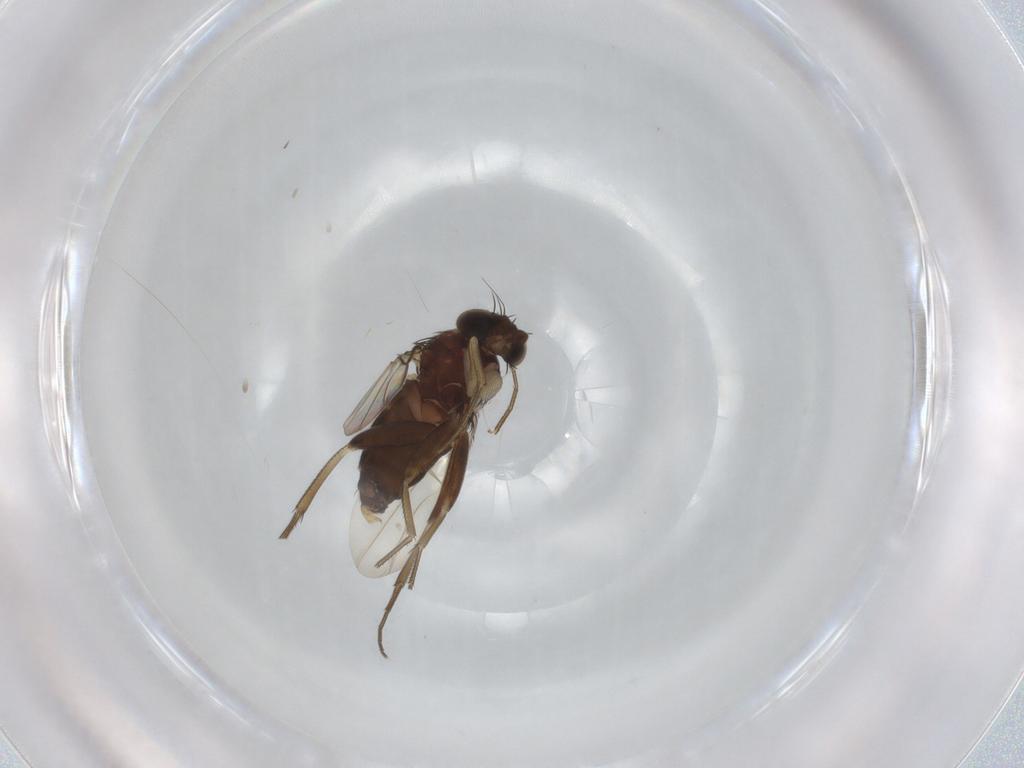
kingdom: Animalia
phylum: Arthropoda
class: Insecta
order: Diptera
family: Phoridae
